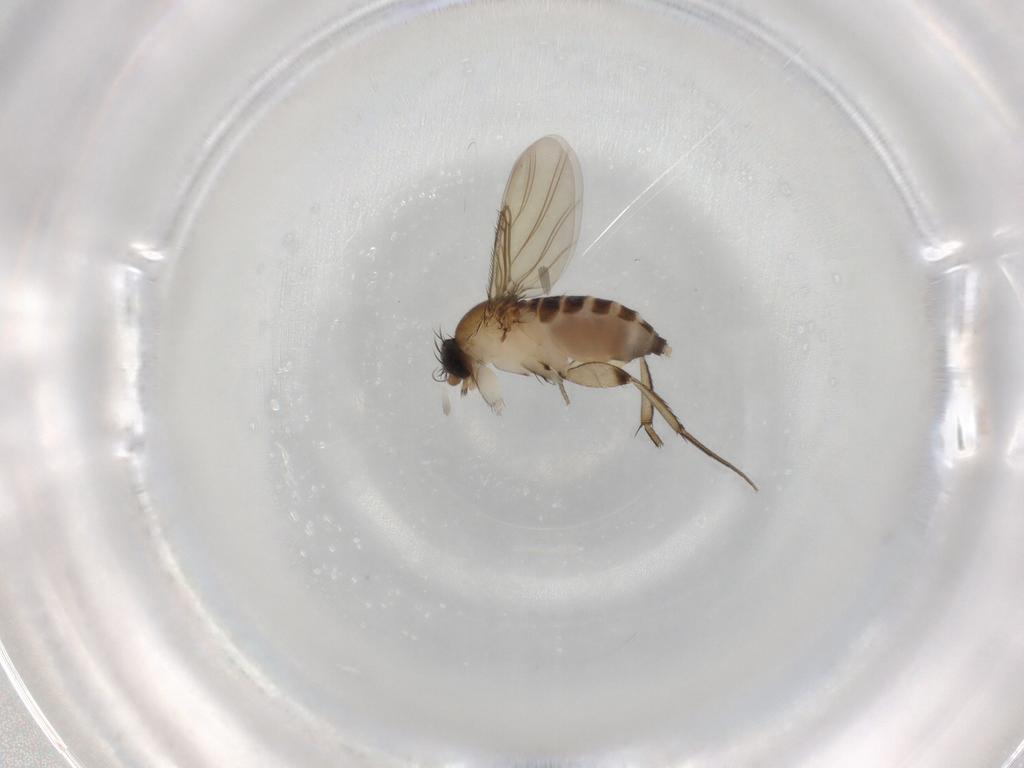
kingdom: Animalia
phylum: Arthropoda
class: Insecta
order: Diptera
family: Phoridae
